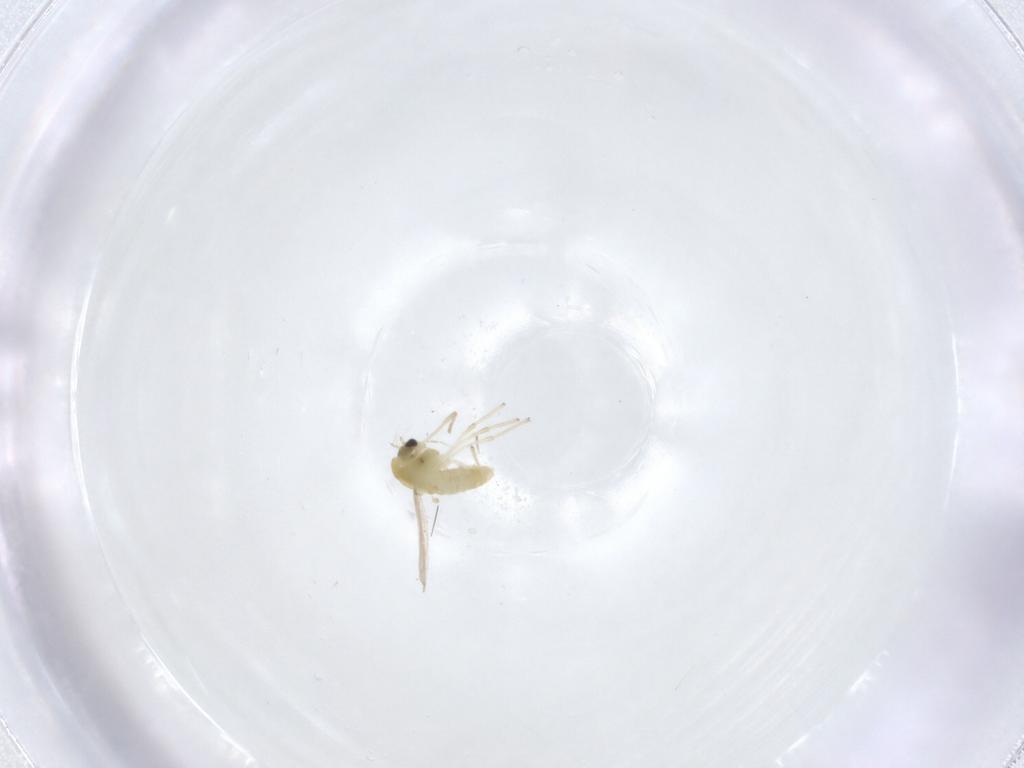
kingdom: Animalia
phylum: Arthropoda
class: Insecta
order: Diptera
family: Chironomidae
